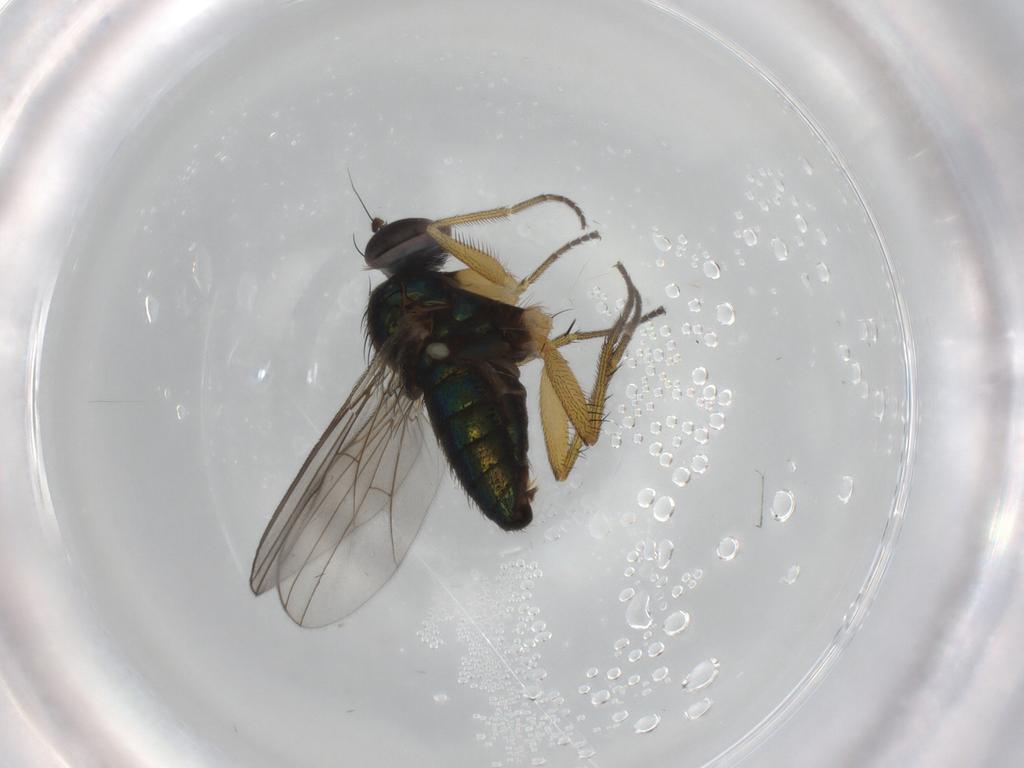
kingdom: Animalia
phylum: Arthropoda
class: Insecta
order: Diptera
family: Dolichopodidae
